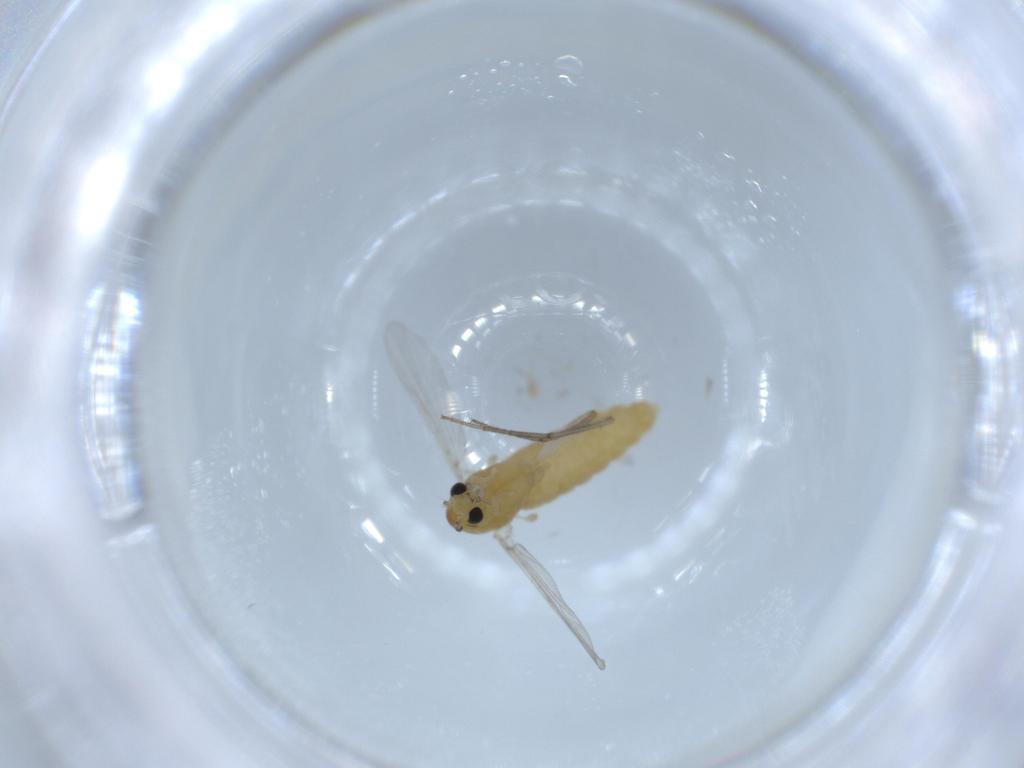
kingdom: Animalia
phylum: Arthropoda
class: Insecta
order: Diptera
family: Chironomidae
